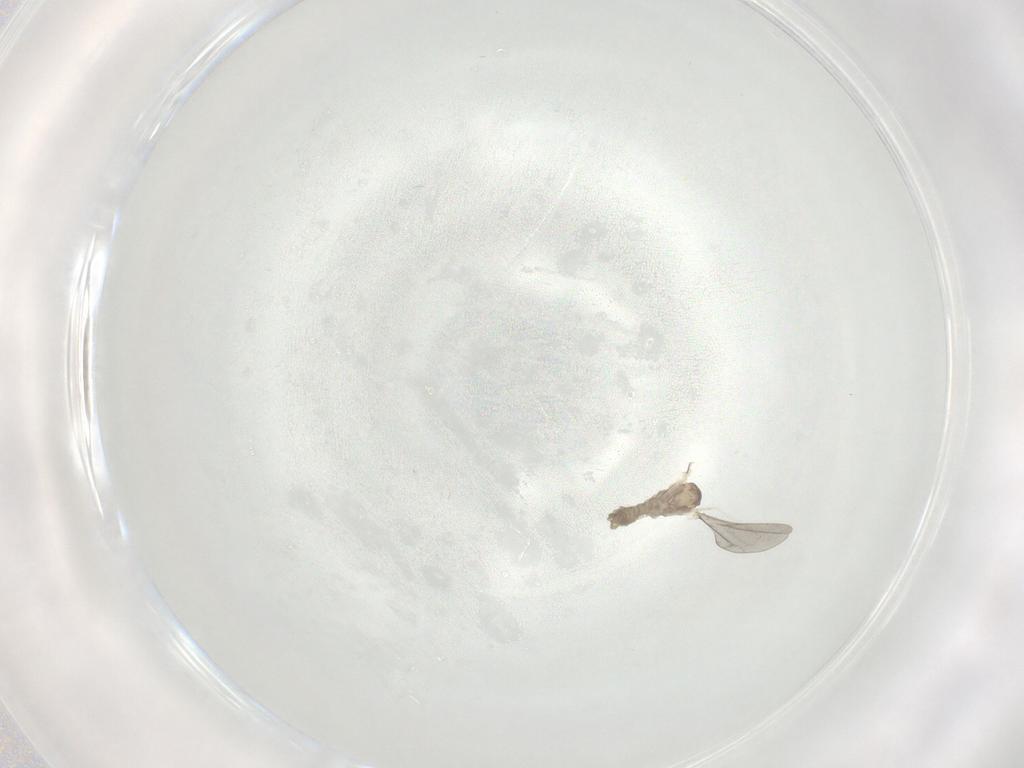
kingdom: Animalia
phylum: Arthropoda
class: Insecta
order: Diptera
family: Cecidomyiidae
